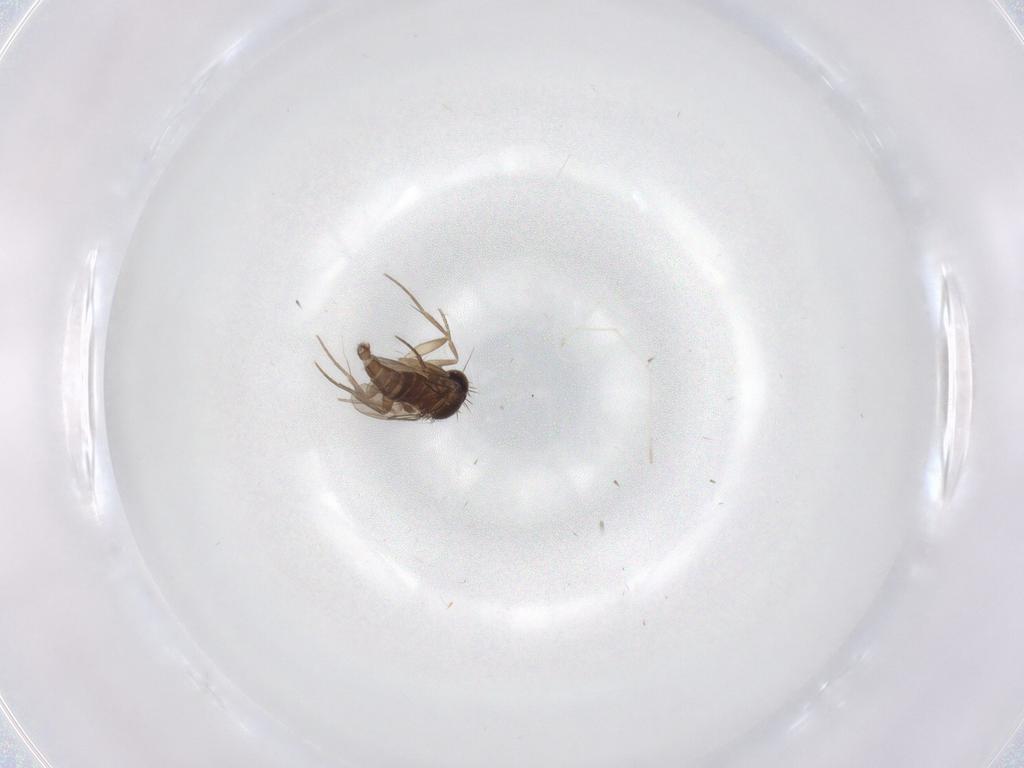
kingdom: Animalia
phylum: Arthropoda
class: Insecta
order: Diptera
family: Phoridae
